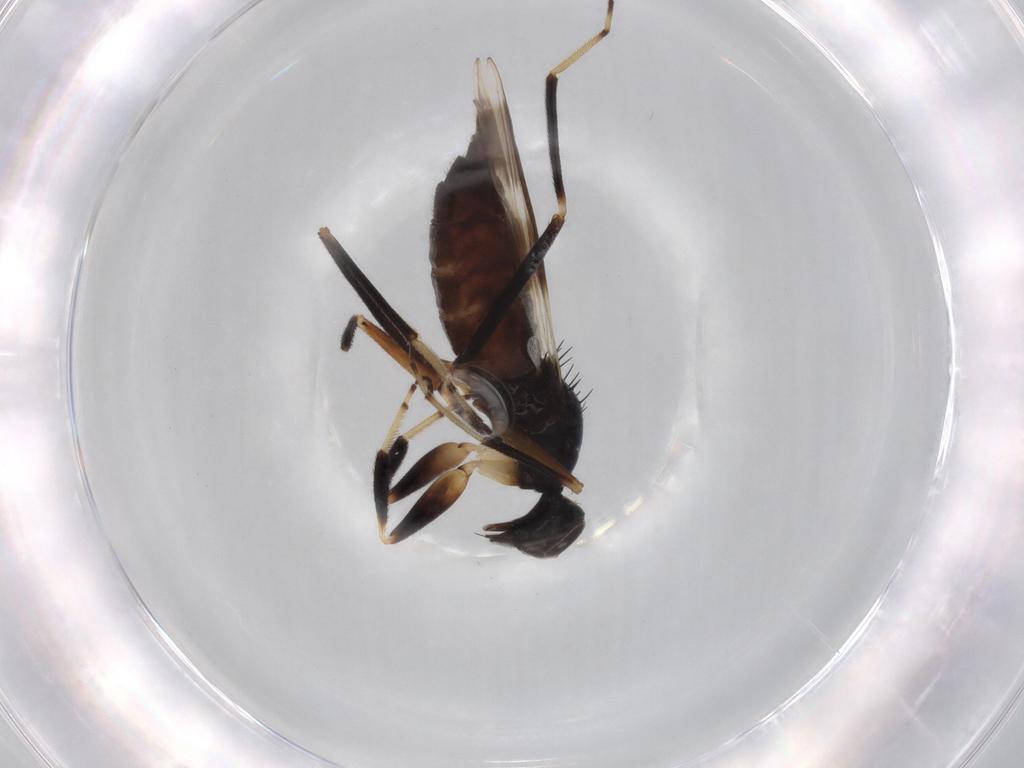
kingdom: Animalia
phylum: Arthropoda
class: Insecta
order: Diptera
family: Hybotidae
